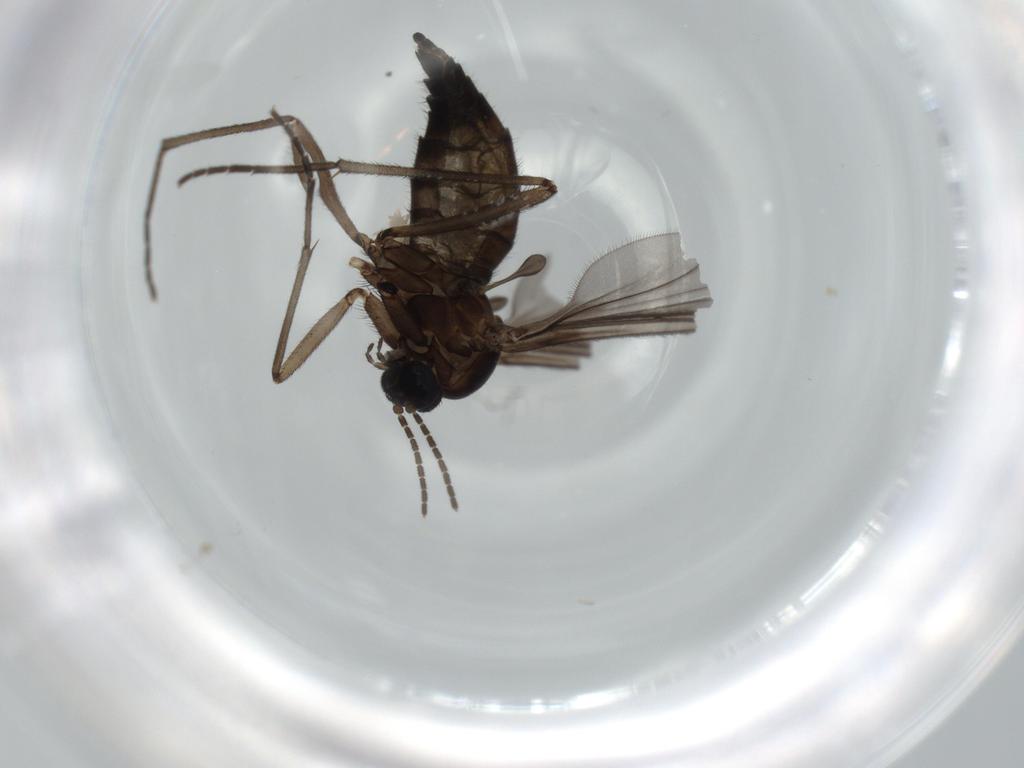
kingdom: Animalia
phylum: Arthropoda
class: Insecta
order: Diptera
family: Sciaridae
